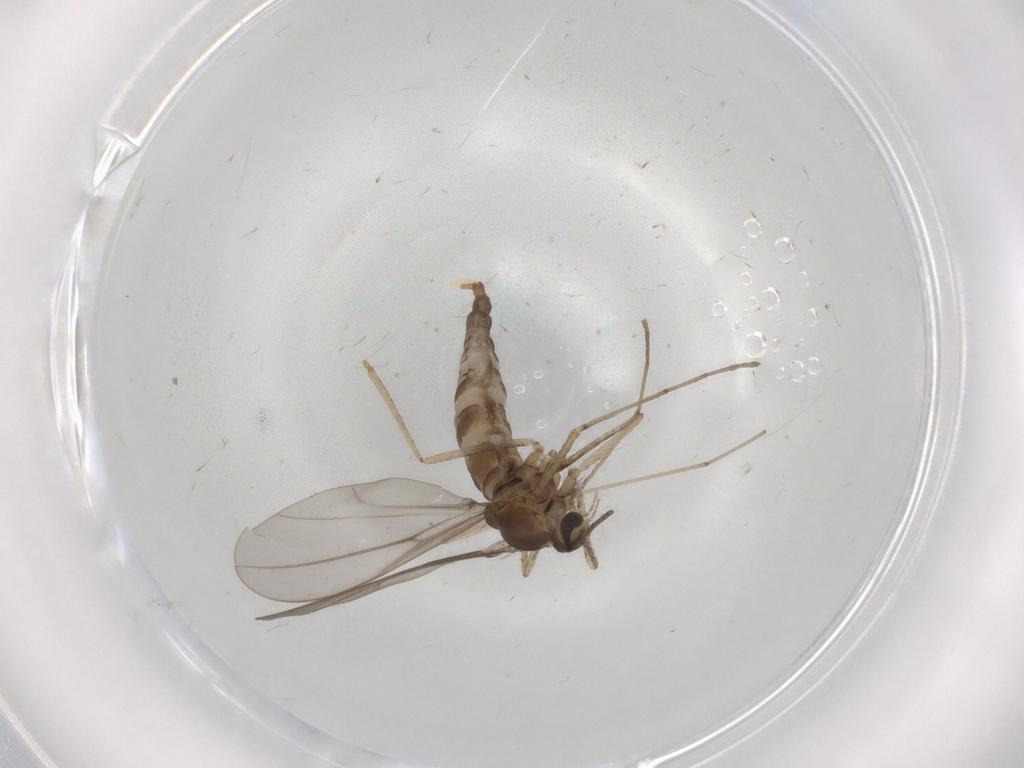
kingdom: Animalia
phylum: Arthropoda
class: Insecta
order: Diptera
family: Cecidomyiidae
